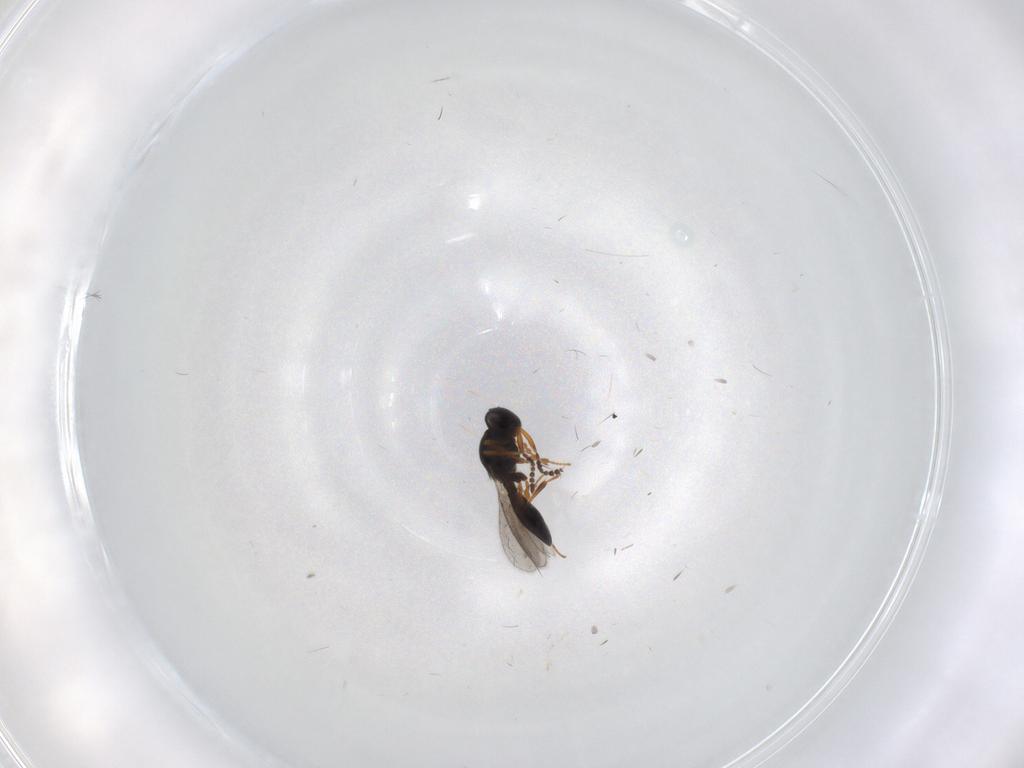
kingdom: Animalia
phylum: Arthropoda
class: Insecta
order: Hymenoptera
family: Platygastridae
